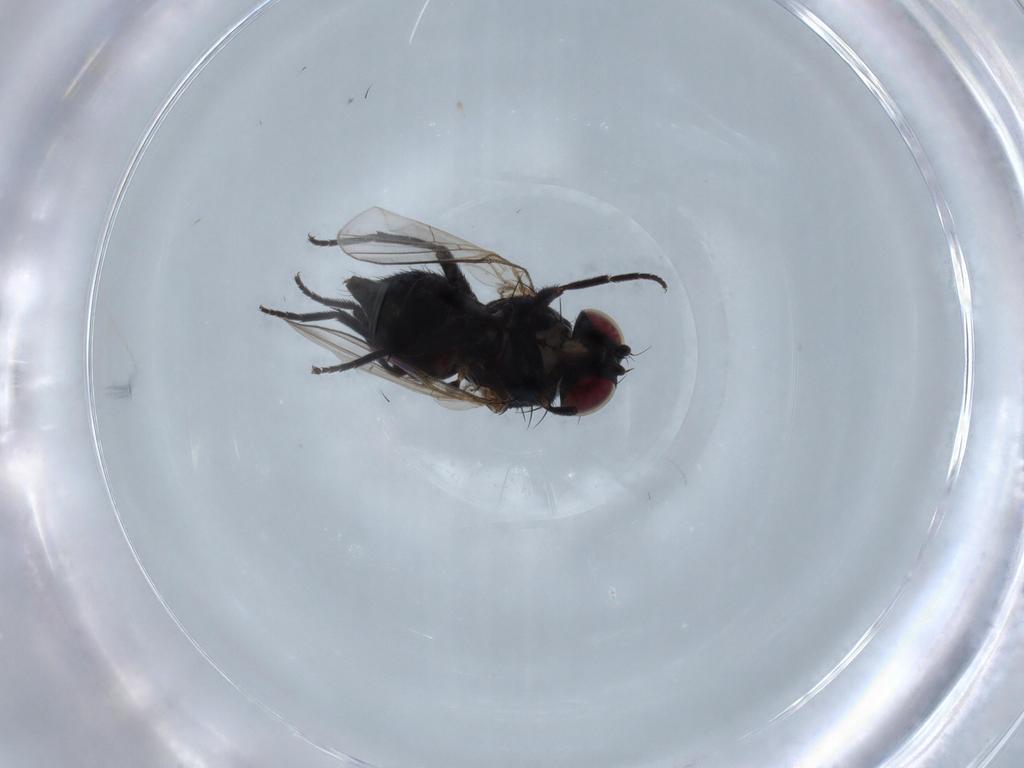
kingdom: Animalia
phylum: Arthropoda
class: Insecta
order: Diptera
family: Agromyzidae
